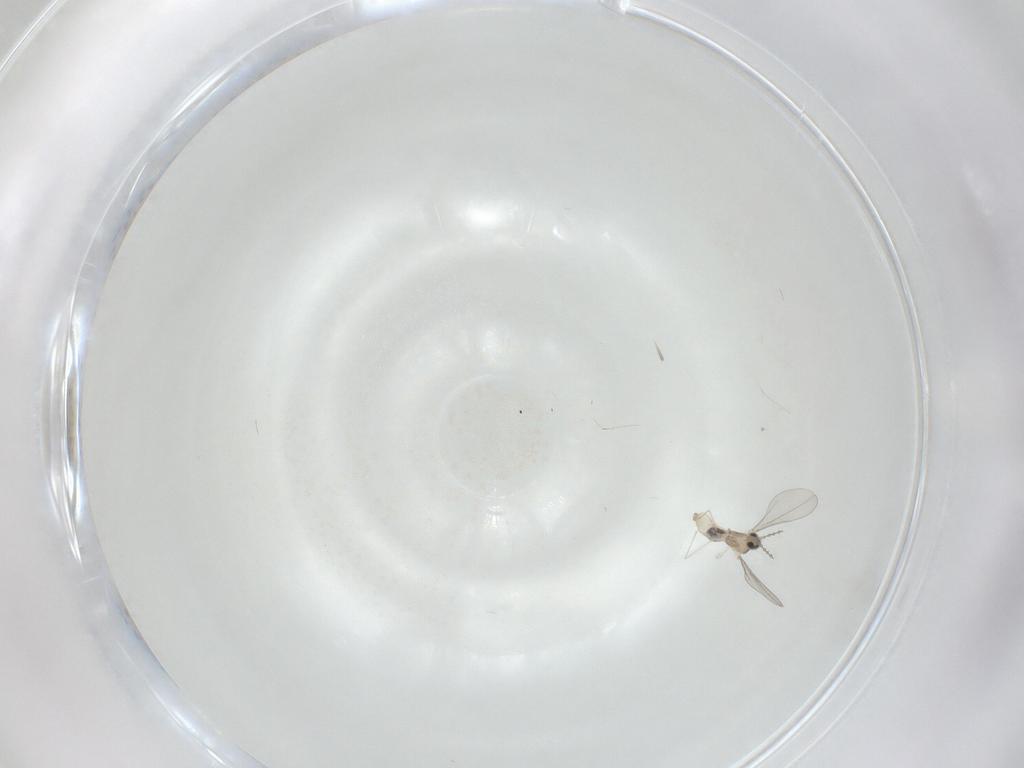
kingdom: Animalia
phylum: Arthropoda
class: Insecta
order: Diptera
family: Cecidomyiidae
